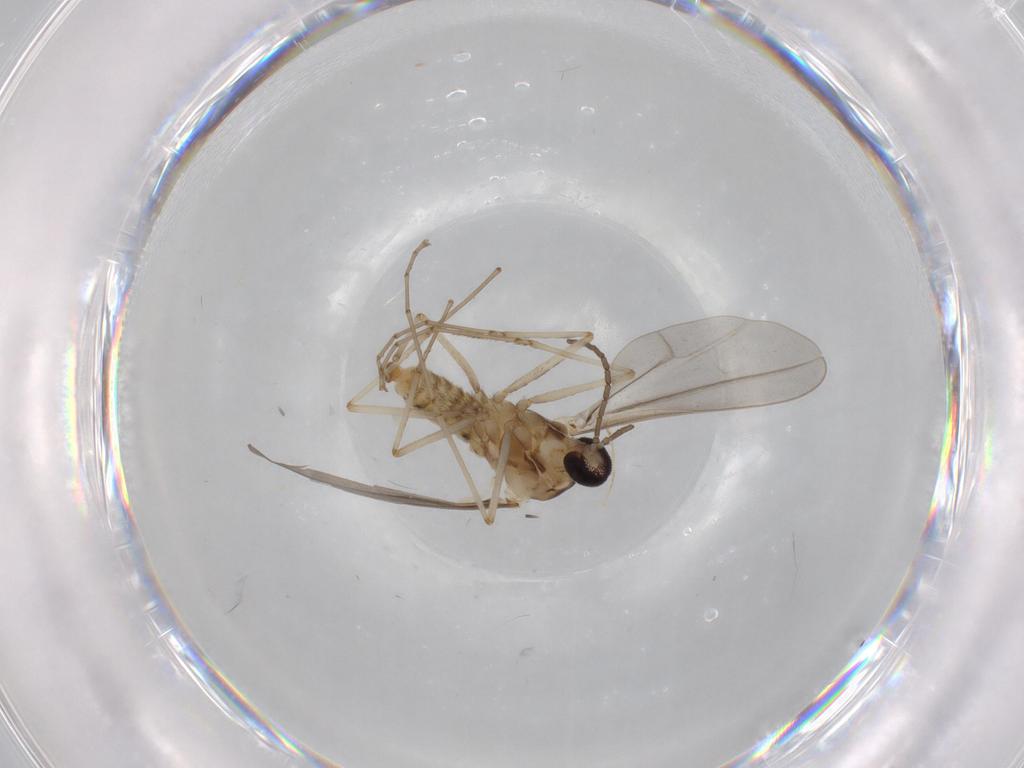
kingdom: Animalia
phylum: Arthropoda
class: Insecta
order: Diptera
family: Cecidomyiidae
